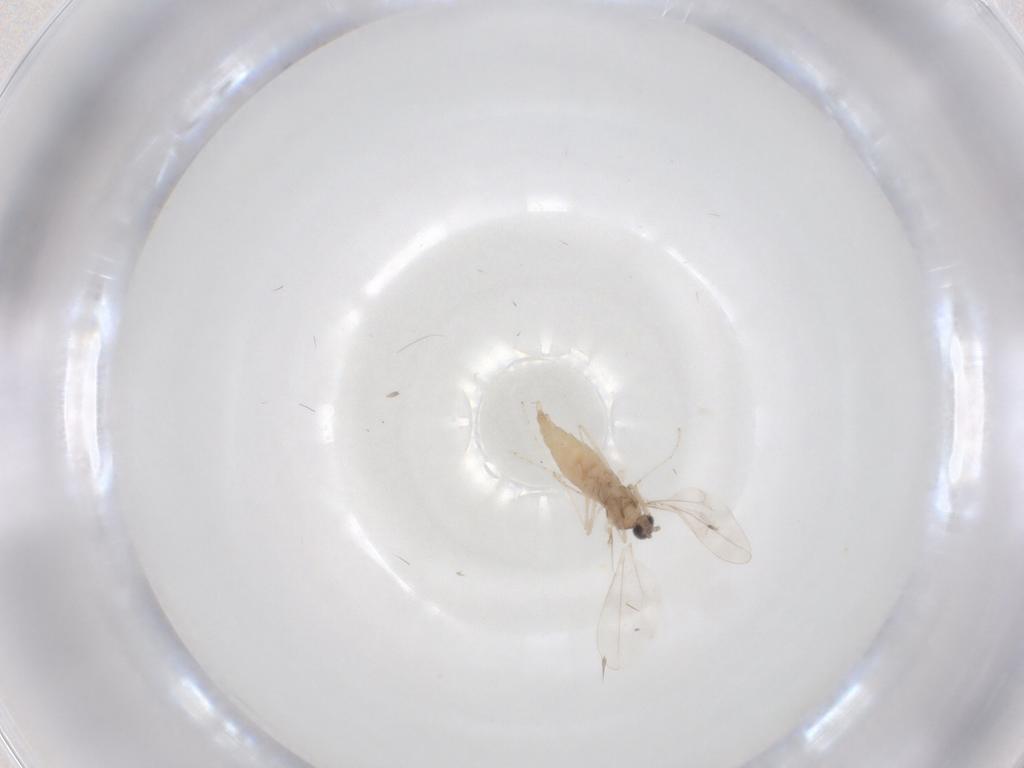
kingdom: Animalia
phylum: Arthropoda
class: Insecta
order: Diptera
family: Cecidomyiidae
